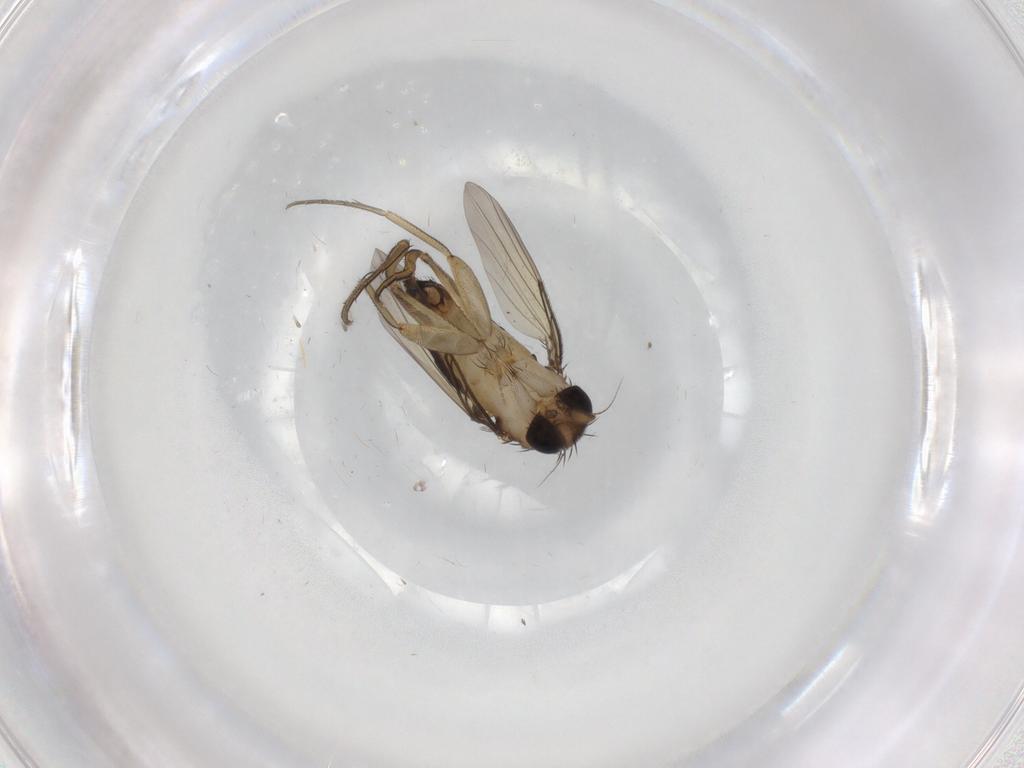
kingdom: Animalia
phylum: Arthropoda
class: Insecta
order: Diptera
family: Phoridae
